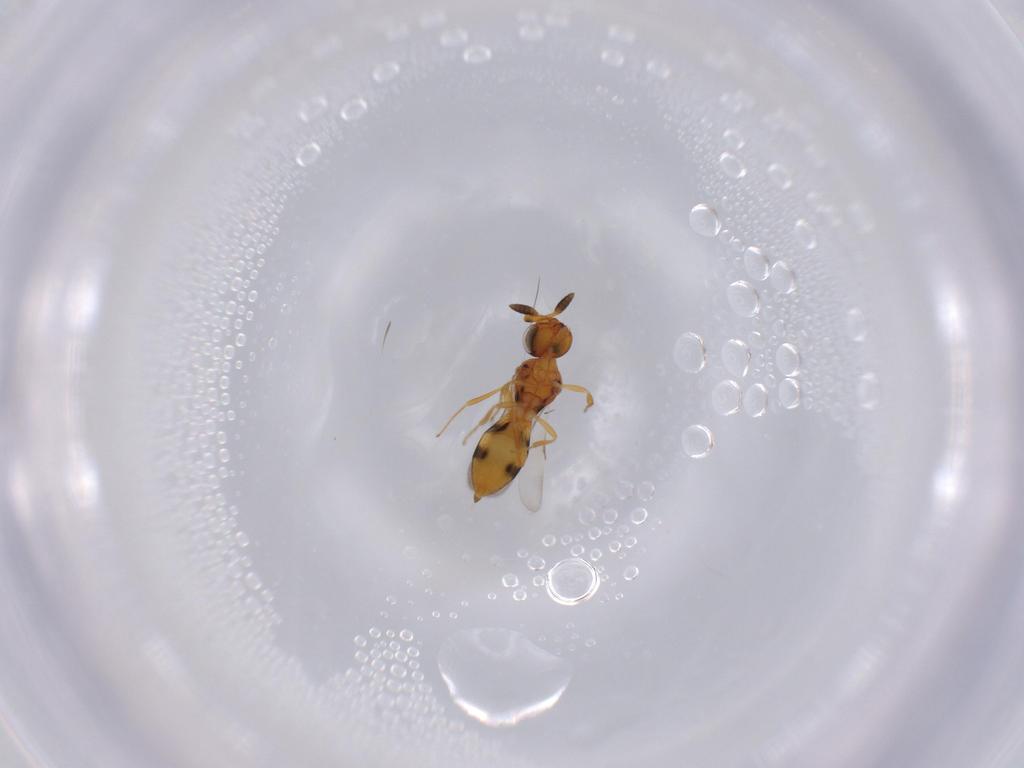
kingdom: Animalia
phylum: Arthropoda
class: Insecta
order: Hymenoptera
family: Scelionidae
